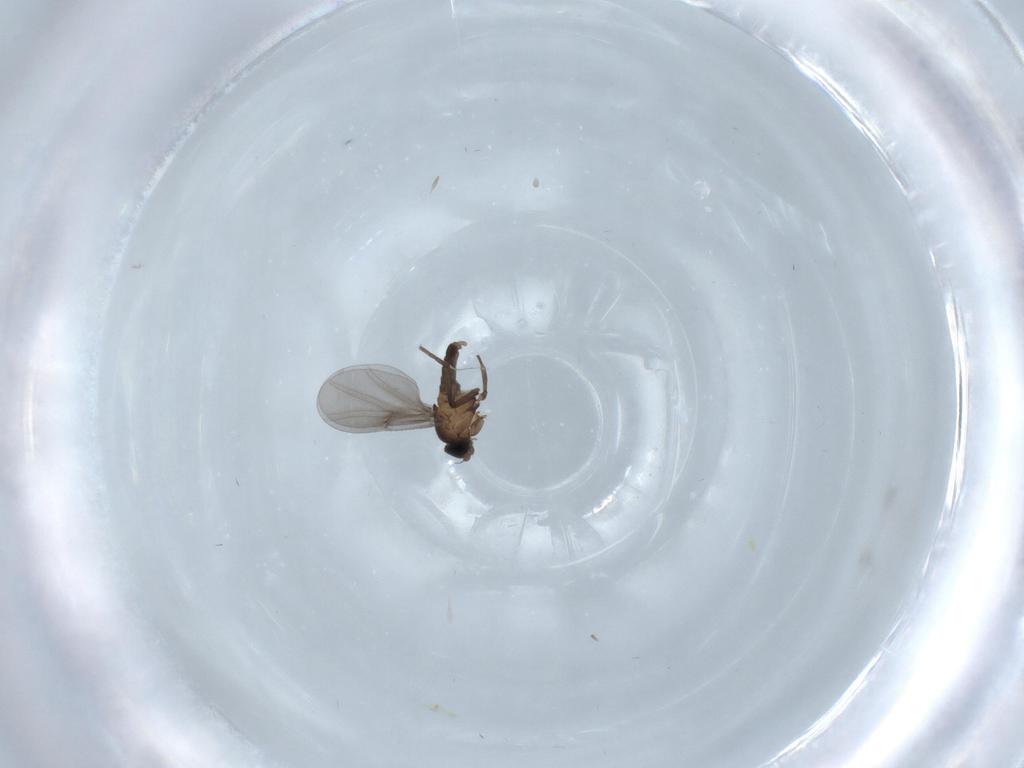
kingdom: Animalia
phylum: Arthropoda
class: Insecta
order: Diptera
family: Phoridae
